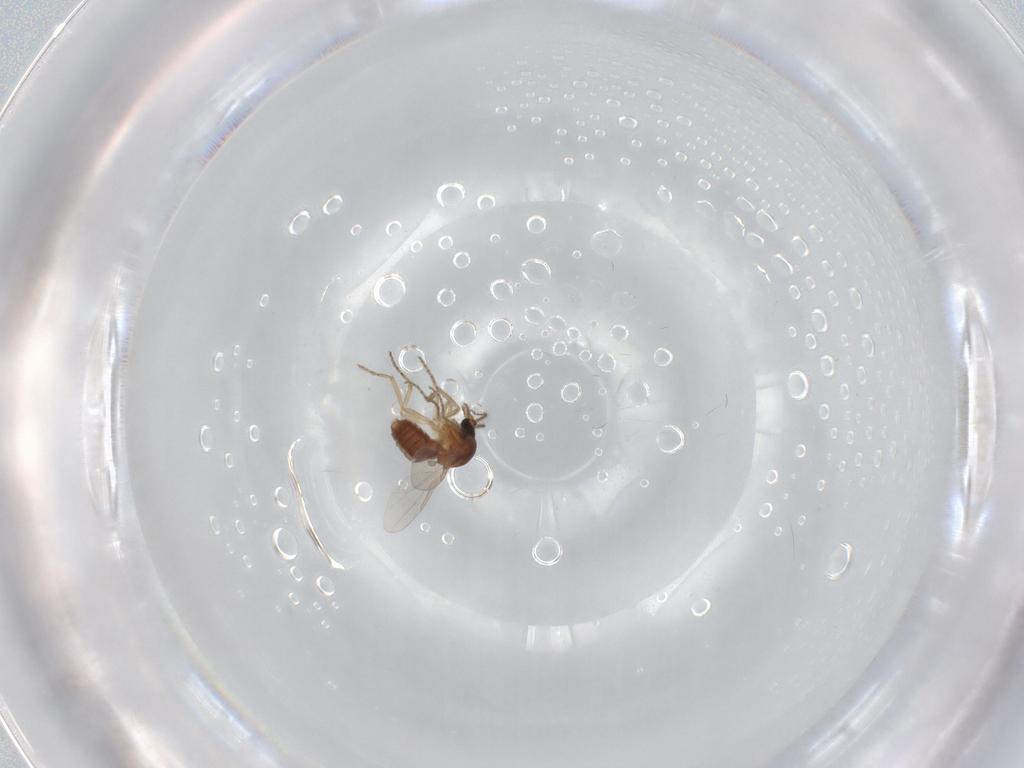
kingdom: Animalia
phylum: Arthropoda
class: Insecta
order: Diptera
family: Ceratopogonidae
